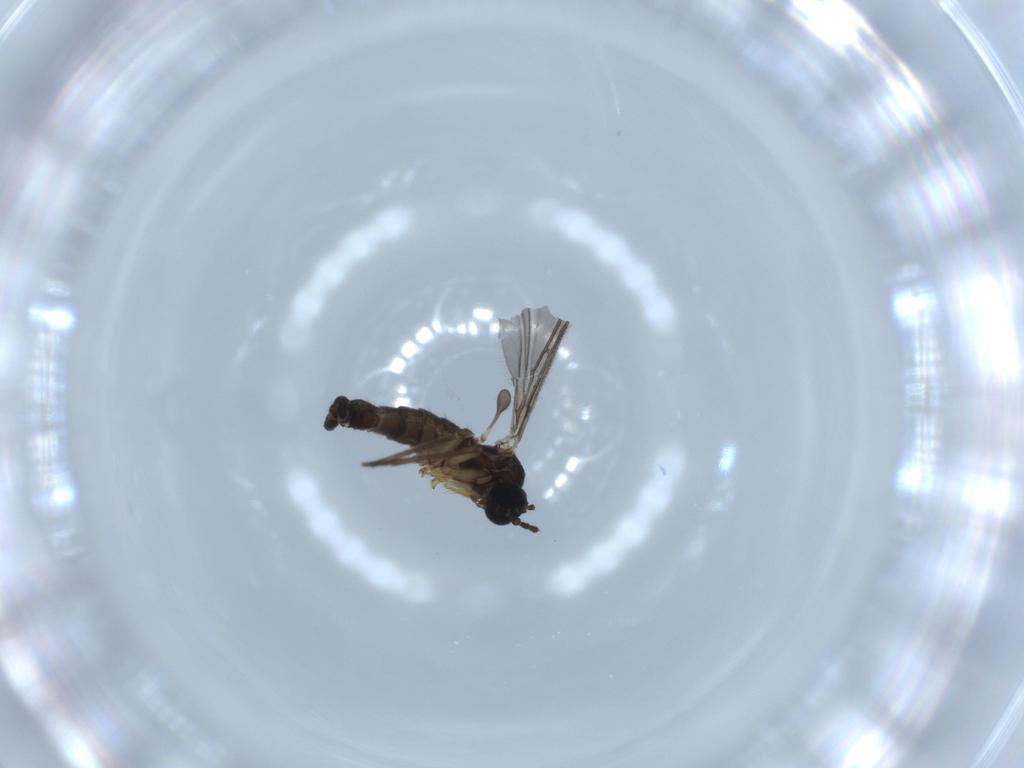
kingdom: Animalia
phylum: Arthropoda
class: Insecta
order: Diptera
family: Sciaridae
